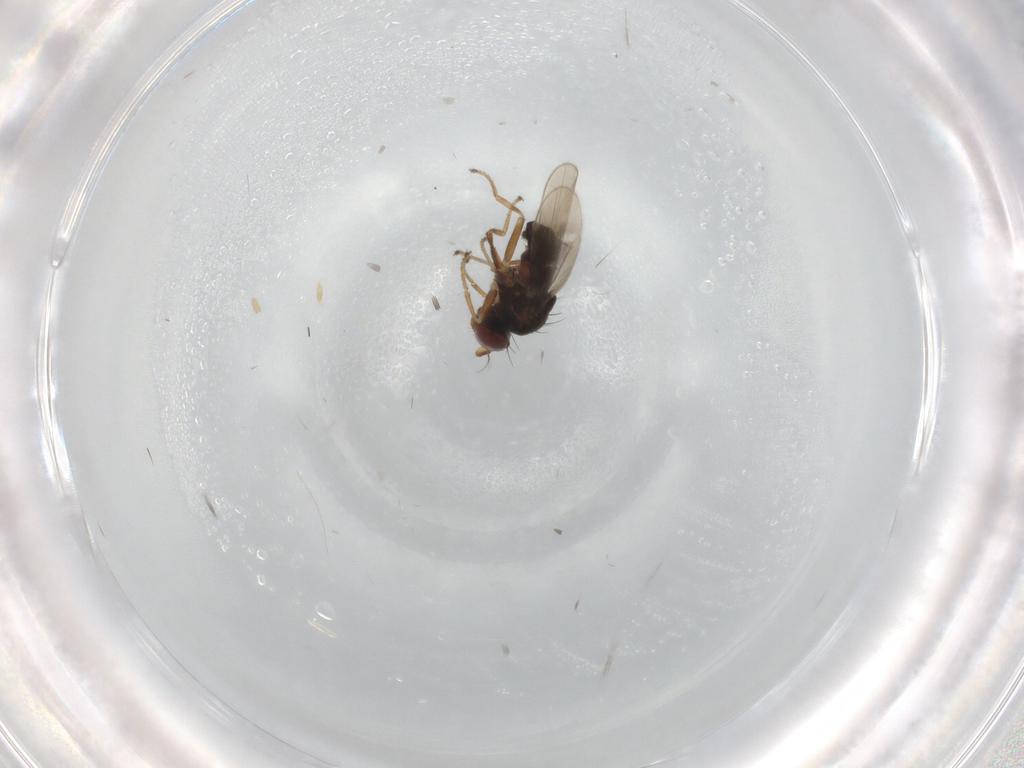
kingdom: Animalia
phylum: Arthropoda
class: Insecta
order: Diptera
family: Ephydridae
